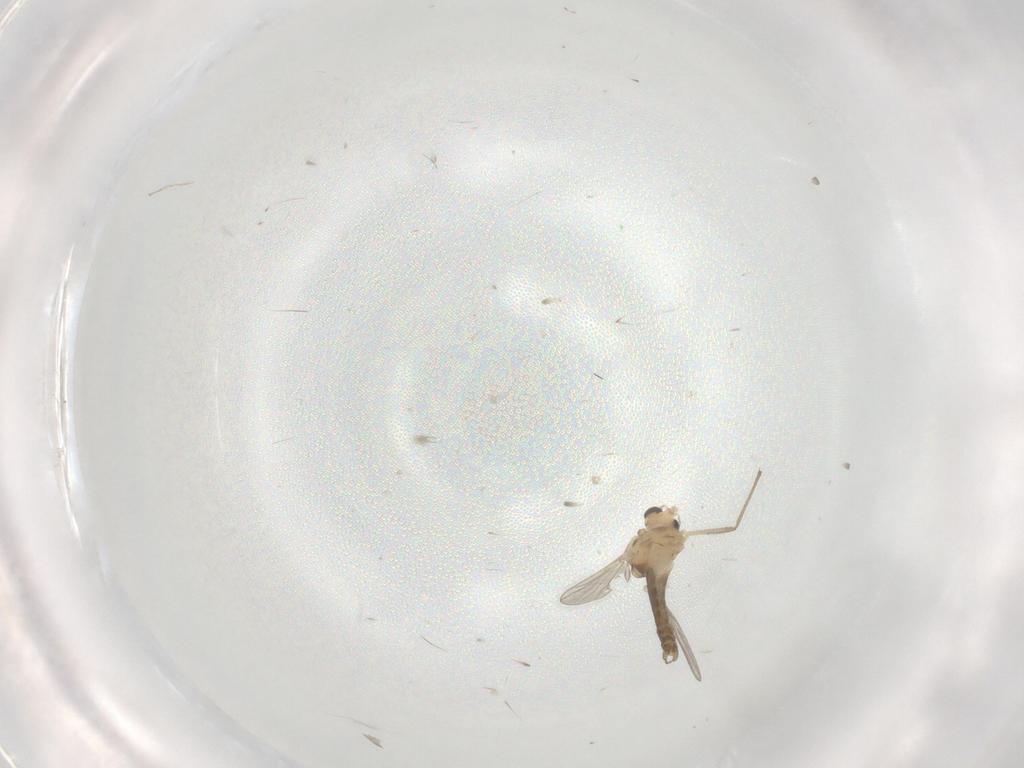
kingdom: Animalia
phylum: Arthropoda
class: Insecta
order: Diptera
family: Chironomidae
